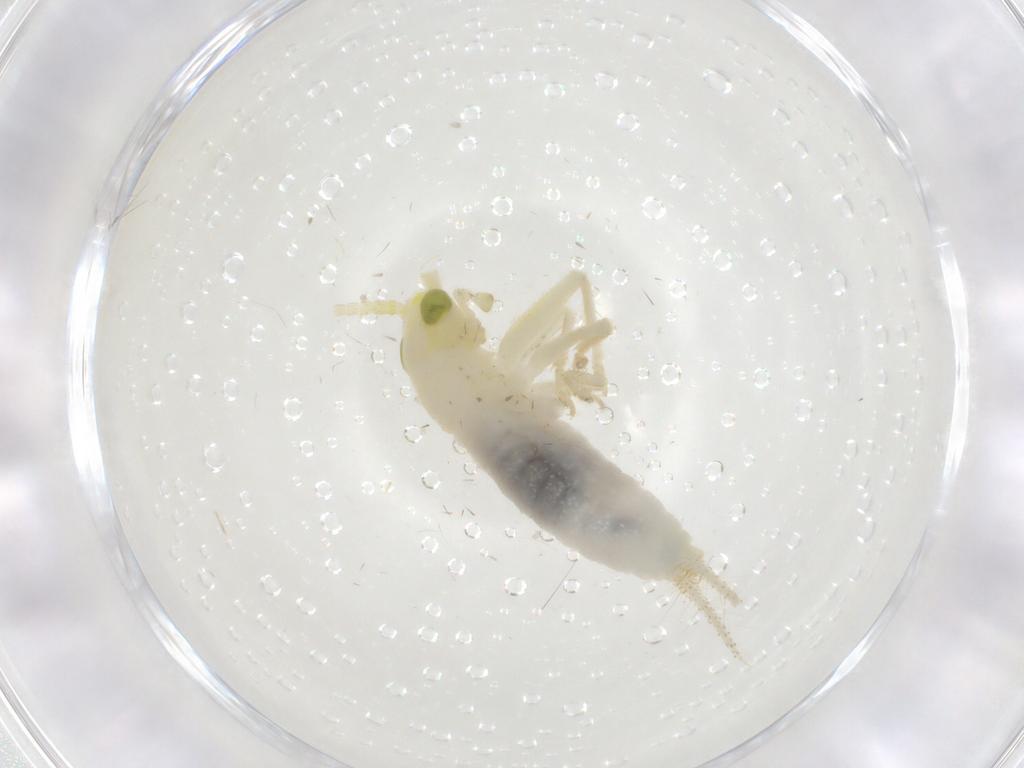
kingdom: Animalia
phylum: Arthropoda
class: Insecta
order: Orthoptera
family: Trigonidiidae
